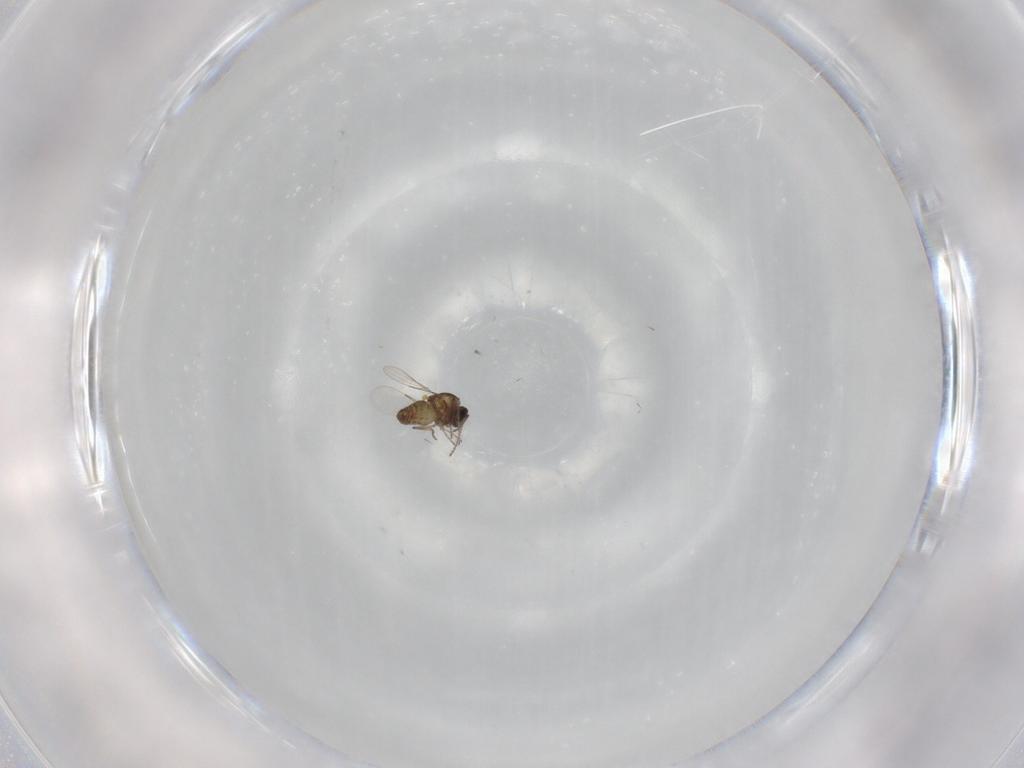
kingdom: Animalia
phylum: Arthropoda
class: Insecta
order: Diptera
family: Ceratopogonidae
